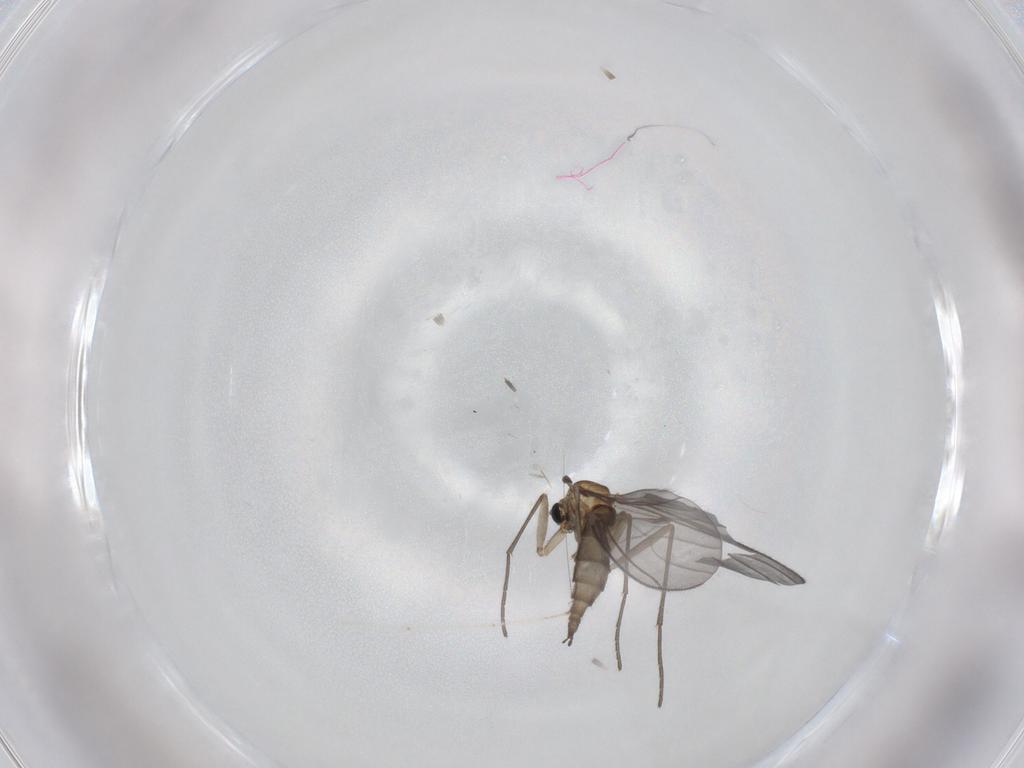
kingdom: Animalia
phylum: Arthropoda
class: Insecta
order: Diptera
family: Sciaridae
